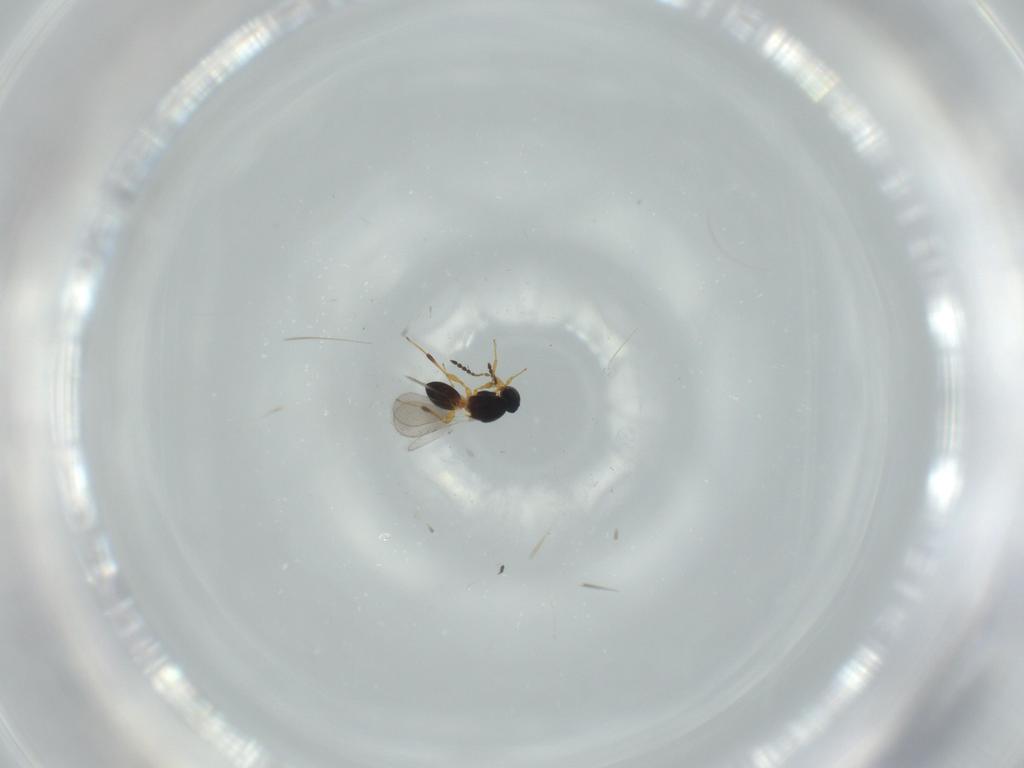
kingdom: Animalia
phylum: Arthropoda
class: Insecta
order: Hymenoptera
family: Platygastridae
